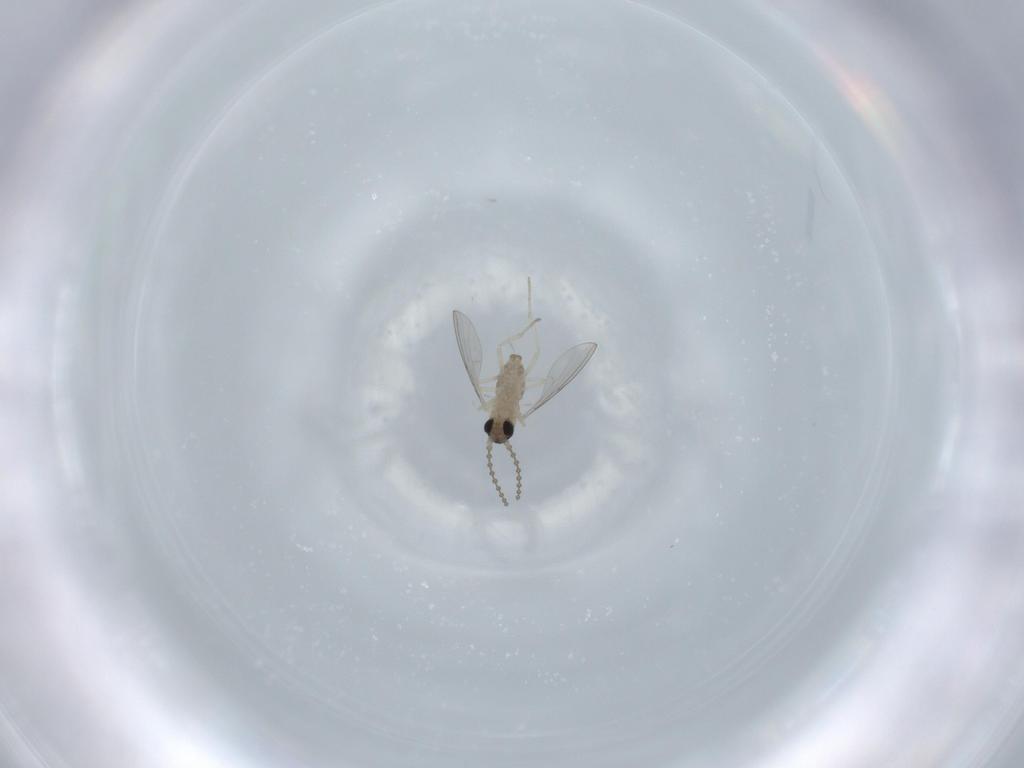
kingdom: Animalia
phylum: Arthropoda
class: Insecta
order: Diptera
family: Cecidomyiidae
